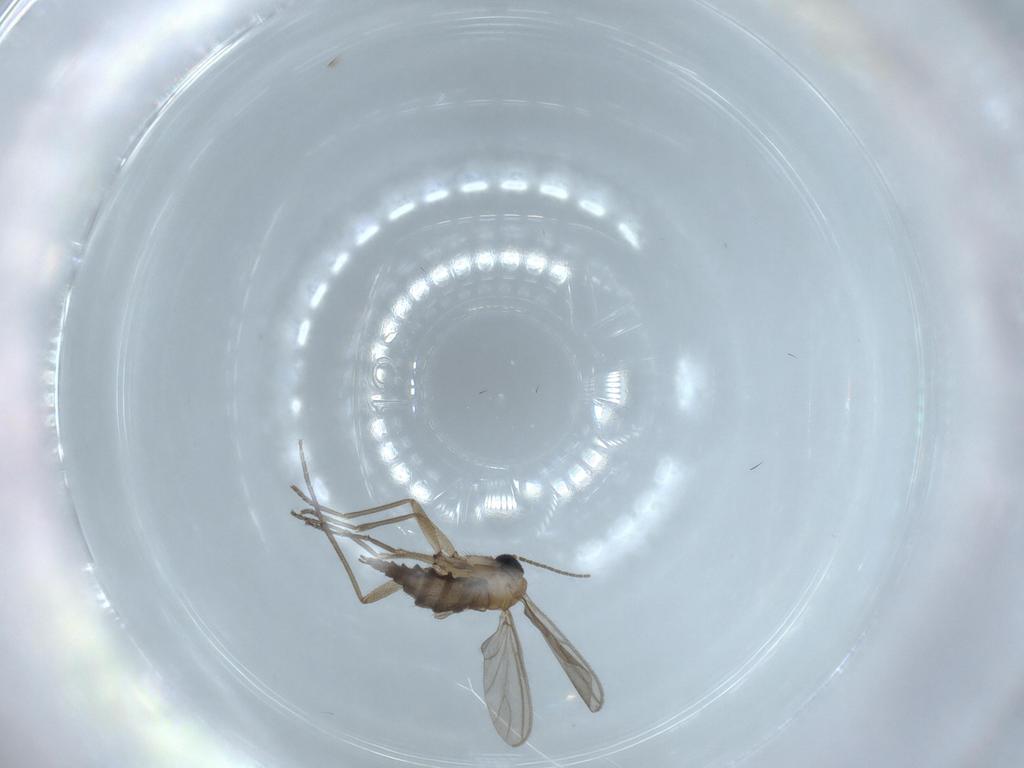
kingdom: Animalia
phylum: Arthropoda
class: Insecta
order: Diptera
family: Sciaridae
